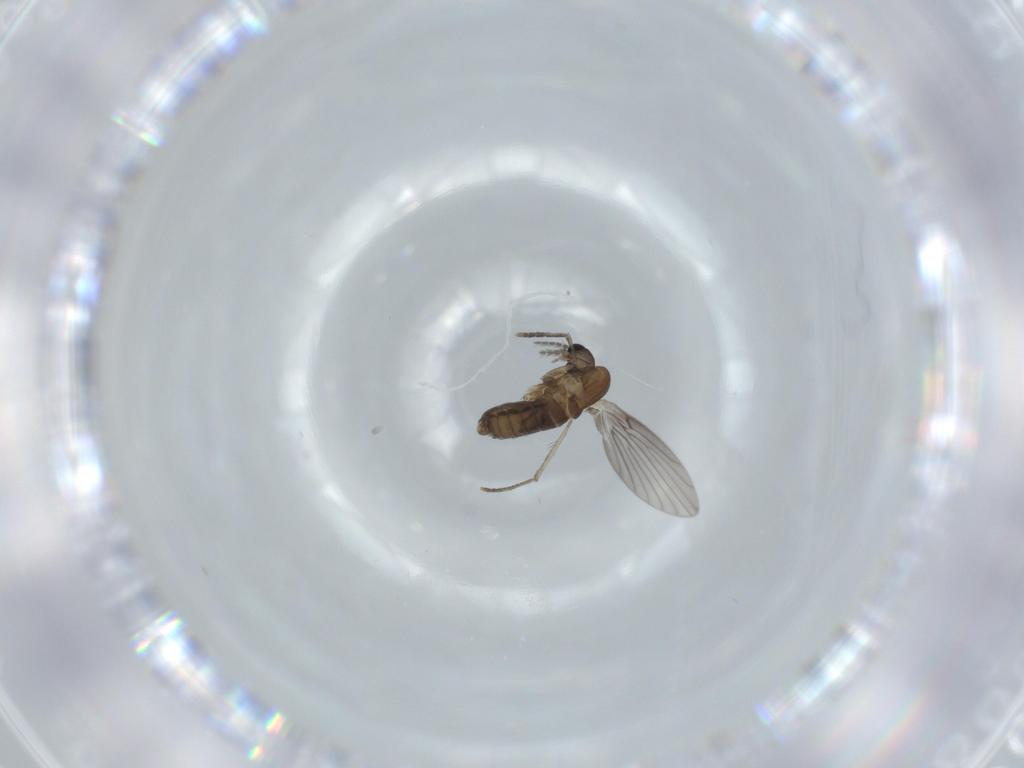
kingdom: Animalia
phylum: Arthropoda
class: Insecta
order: Diptera
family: Psychodidae
